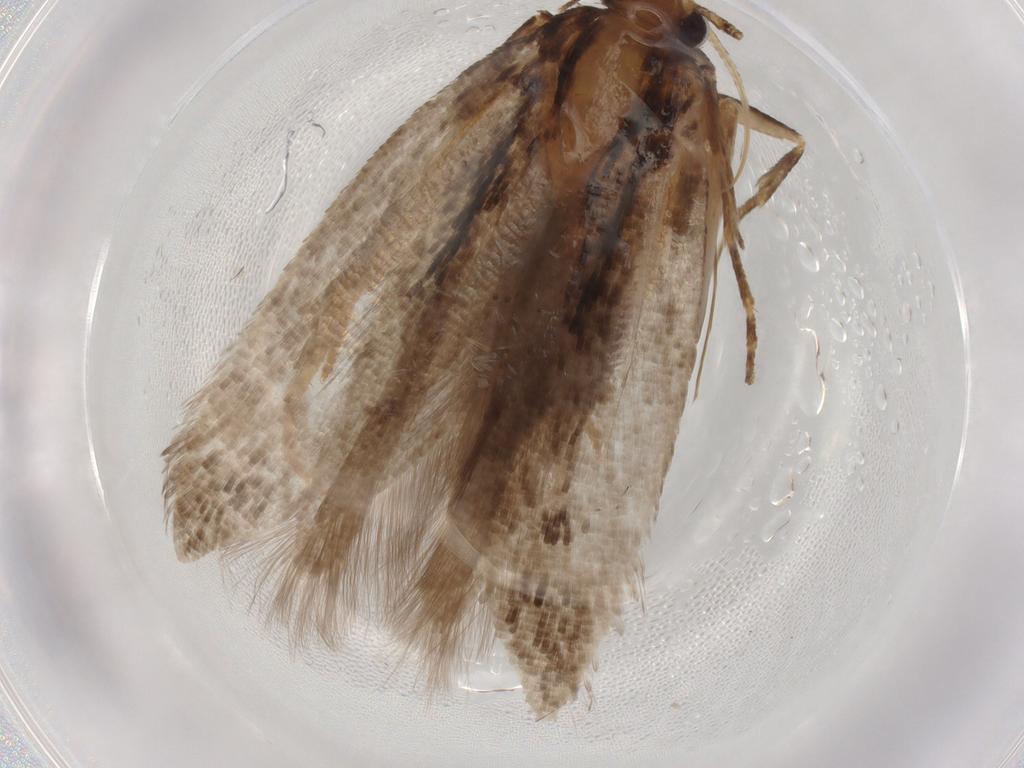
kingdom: Animalia
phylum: Arthropoda
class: Insecta
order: Lepidoptera
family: Gelechiidae
